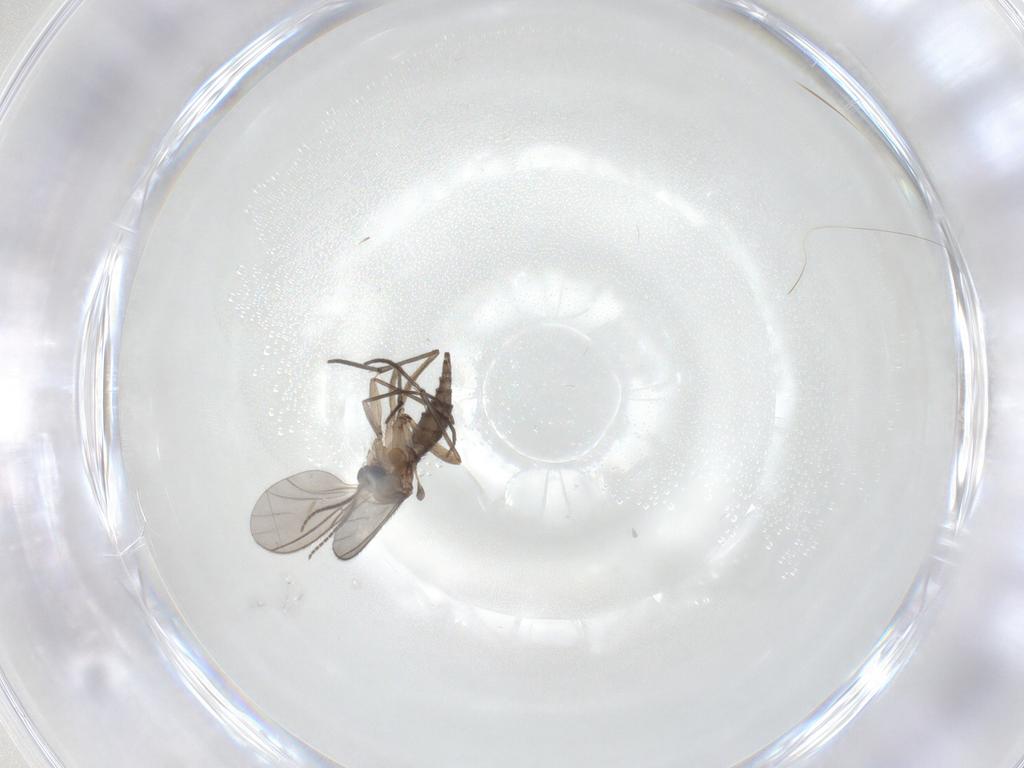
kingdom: Animalia
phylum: Arthropoda
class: Insecta
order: Diptera
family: Sciaridae
